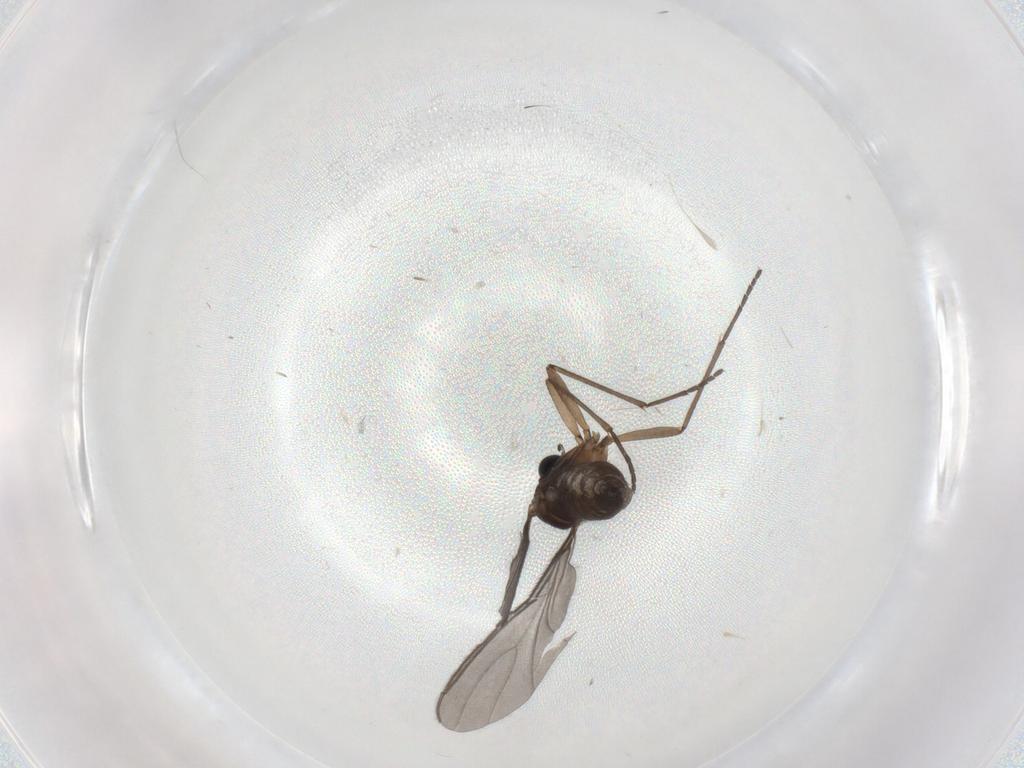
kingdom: Animalia
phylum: Arthropoda
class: Insecta
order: Diptera
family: Sciaridae
